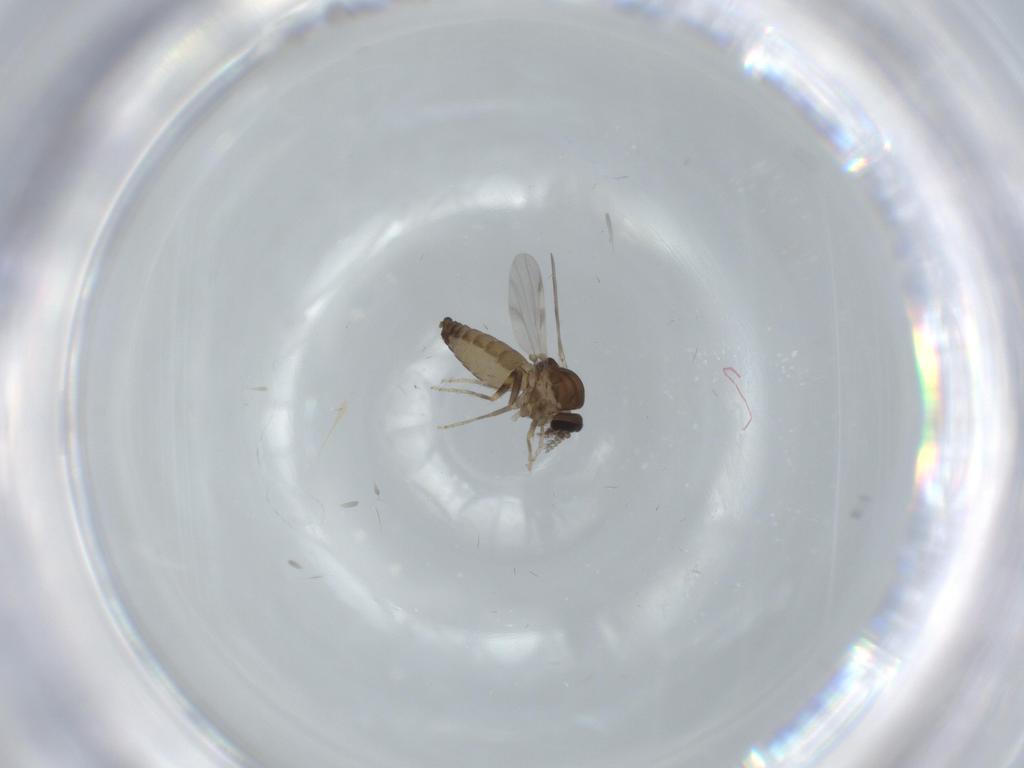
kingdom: Animalia
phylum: Arthropoda
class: Insecta
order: Diptera
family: Ceratopogonidae
